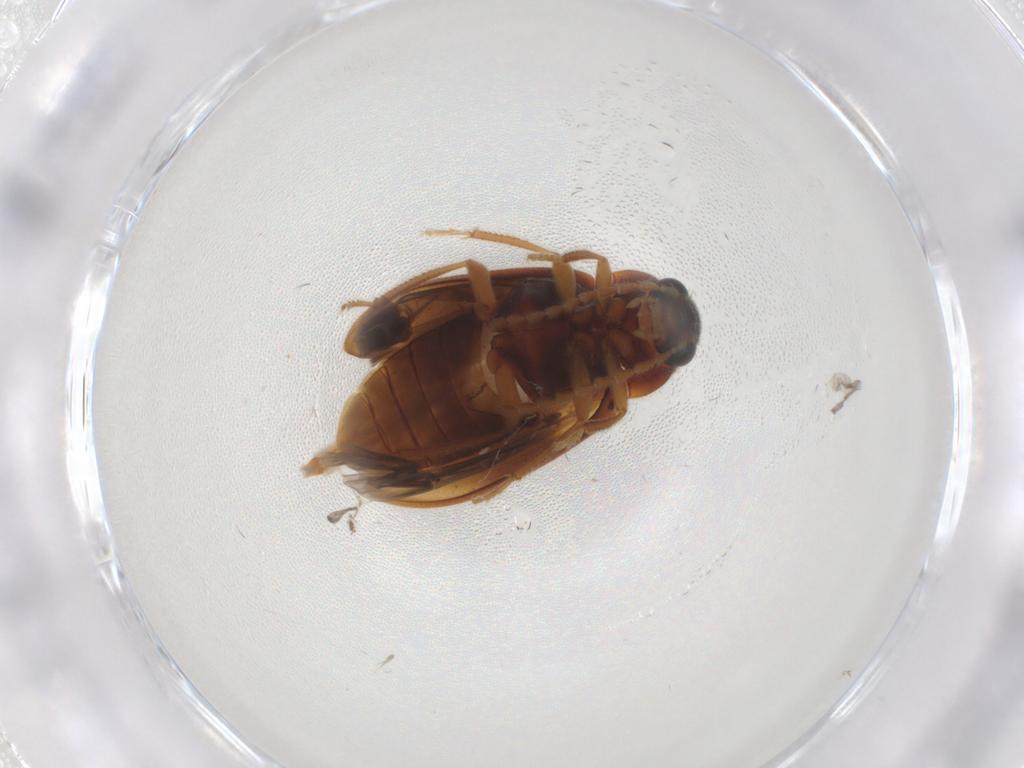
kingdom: Animalia
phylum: Arthropoda
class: Insecta
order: Coleoptera
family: Ptilodactylidae
